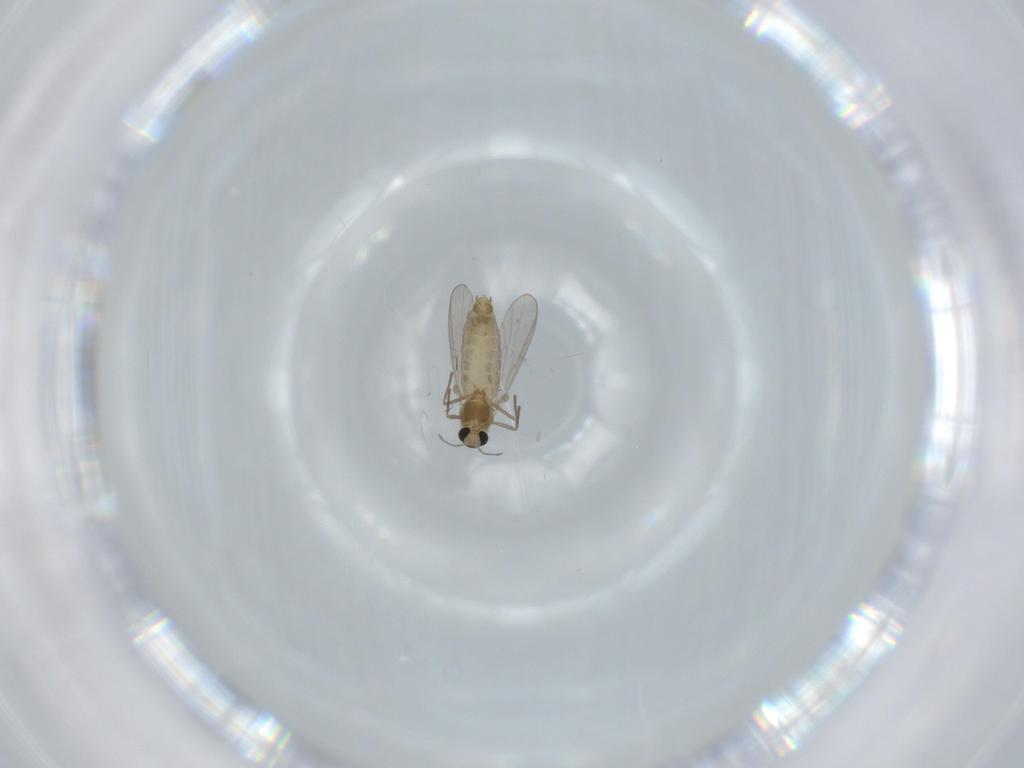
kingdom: Animalia
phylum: Arthropoda
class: Insecta
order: Diptera
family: Chironomidae
